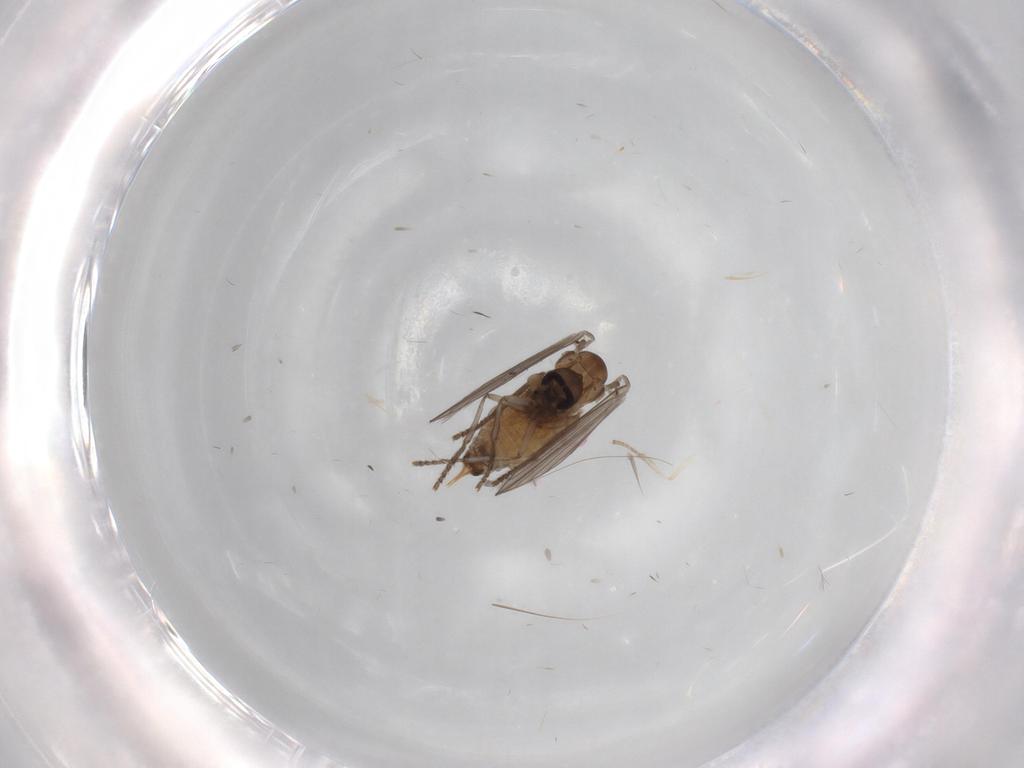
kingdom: Animalia
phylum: Arthropoda
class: Insecta
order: Diptera
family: Psychodidae
